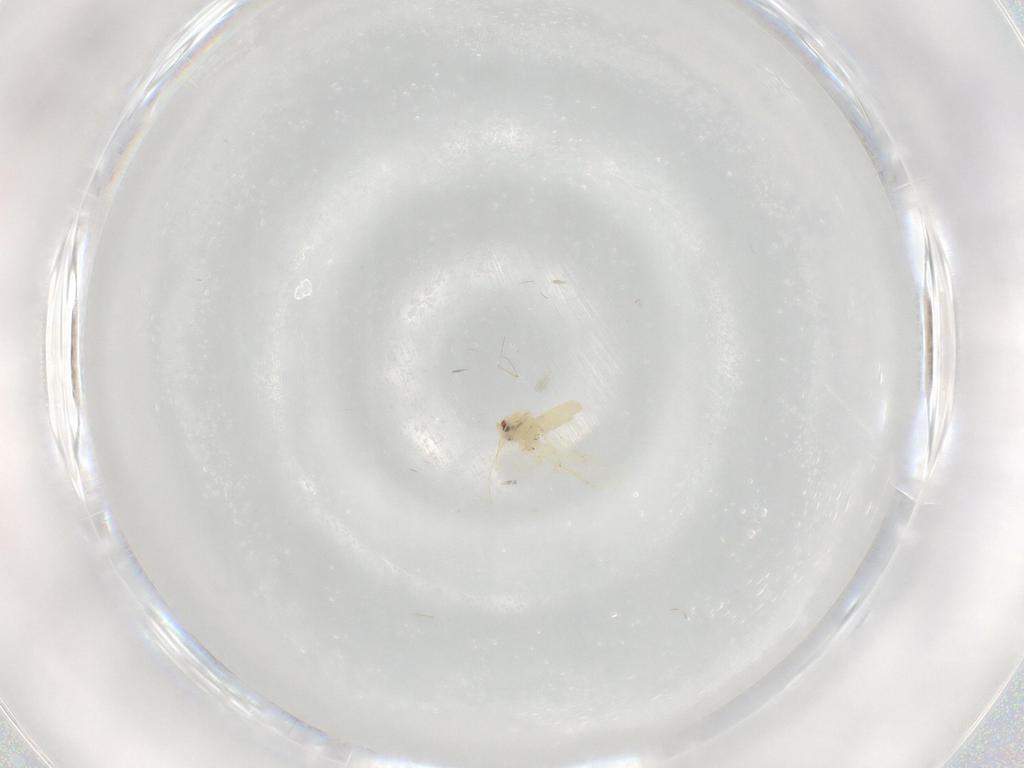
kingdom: Animalia
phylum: Arthropoda
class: Insecta
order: Hemiptera
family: Aleyrodidae
